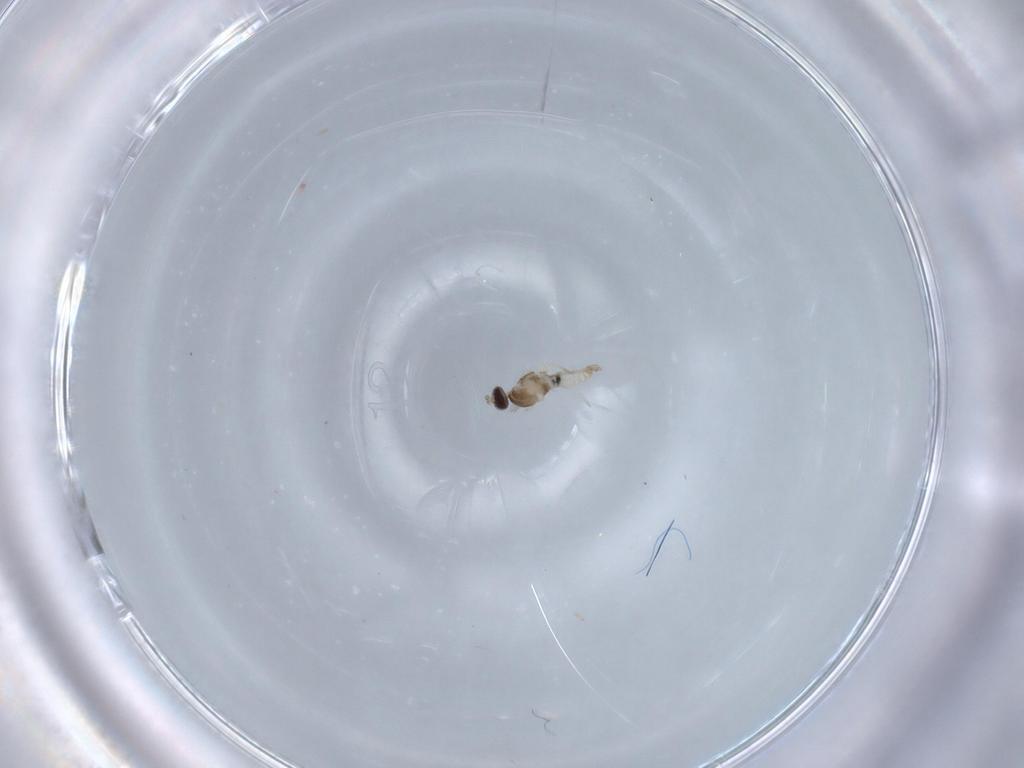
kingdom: Animalia
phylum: Arthropoda
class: Insecta
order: Diptera
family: Cecidomyiidae
